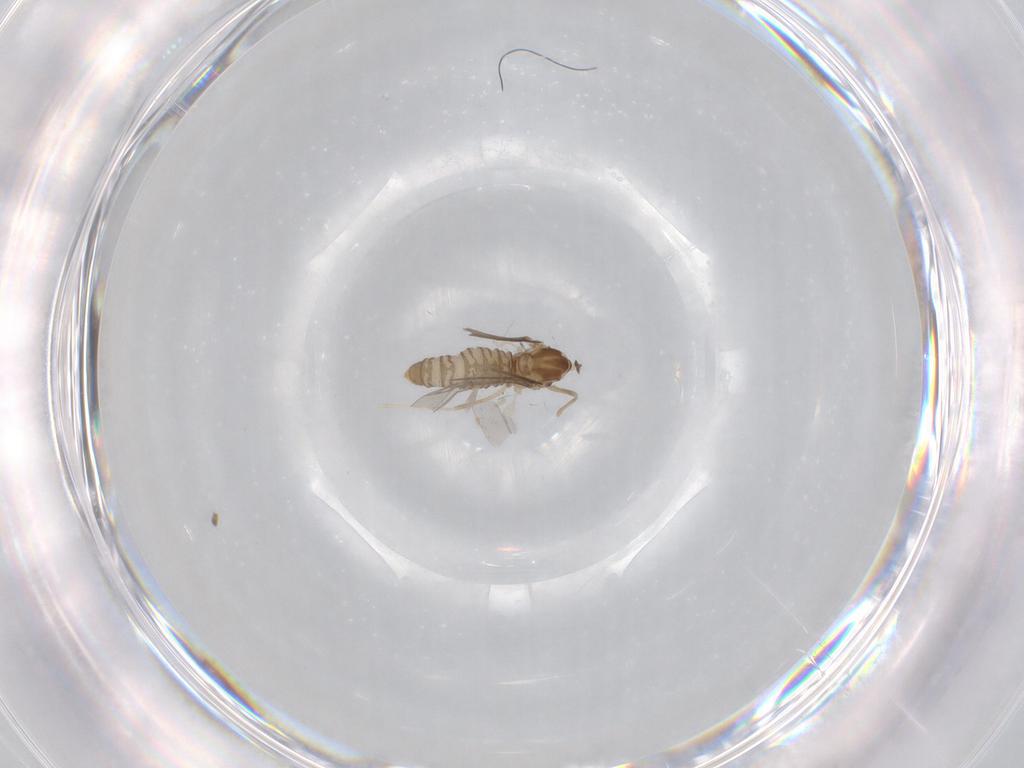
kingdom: Animalia
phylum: Arthropoda
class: Insecta
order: Diptera
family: Cecidomyiidae
